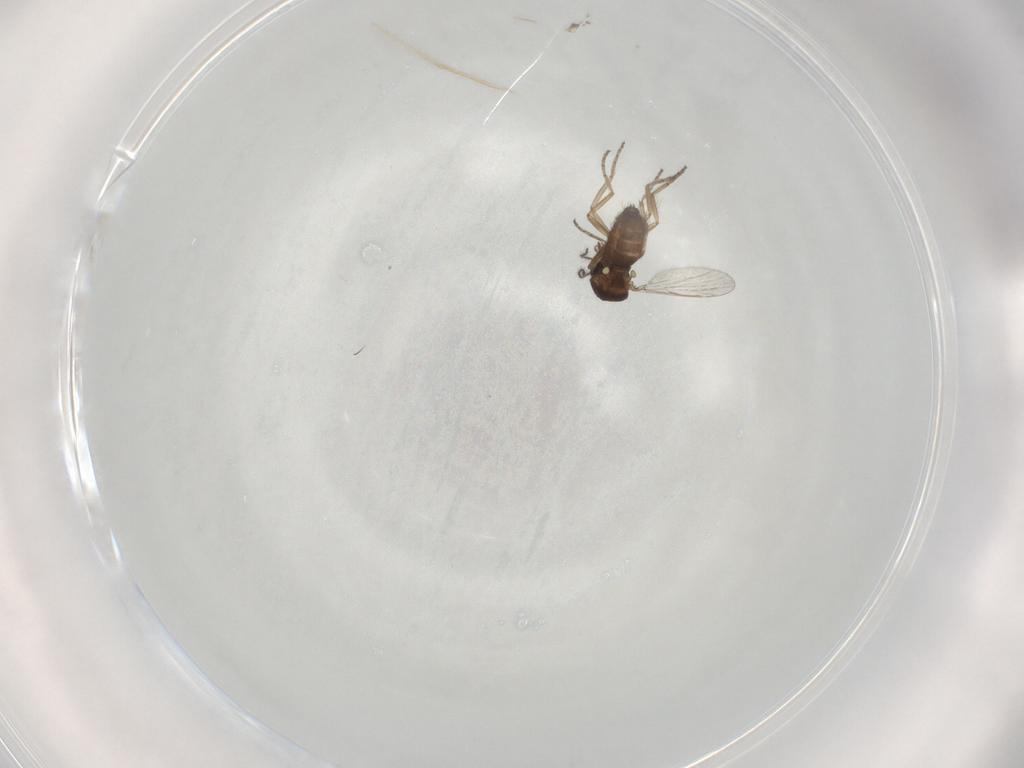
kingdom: Animalia
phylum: Arthropoda
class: Insecta
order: Diptera
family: Ceratopogonidae
